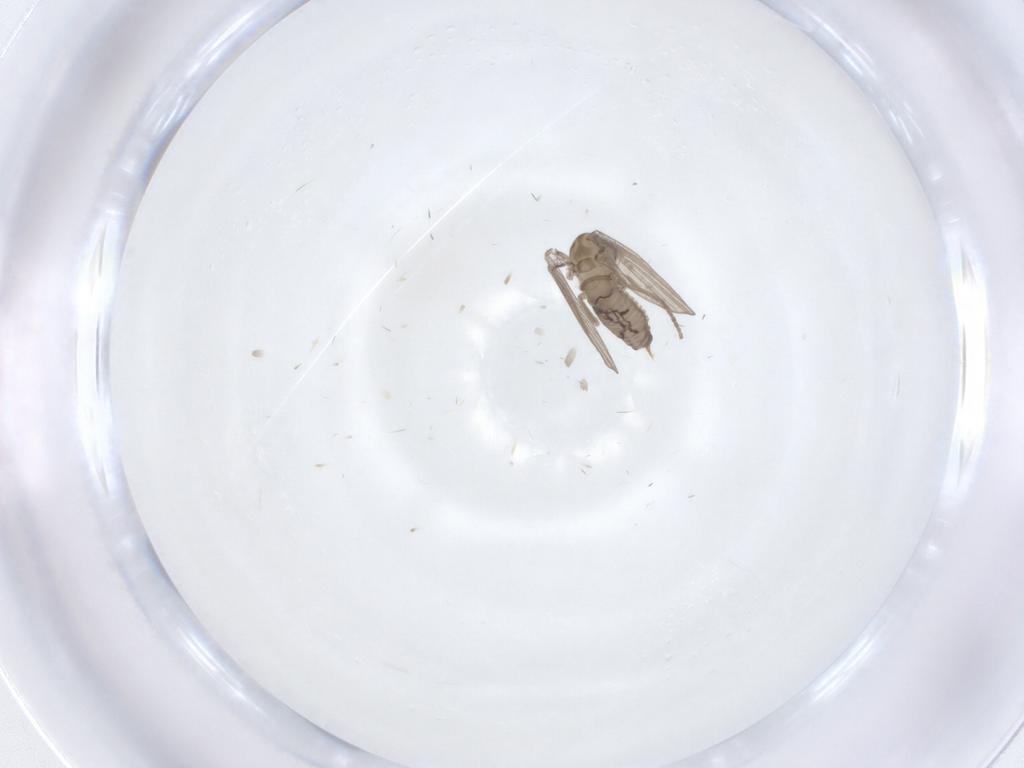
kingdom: Animalia
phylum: Arthropoda
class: Insecta
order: Diptera
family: Psychodidae
